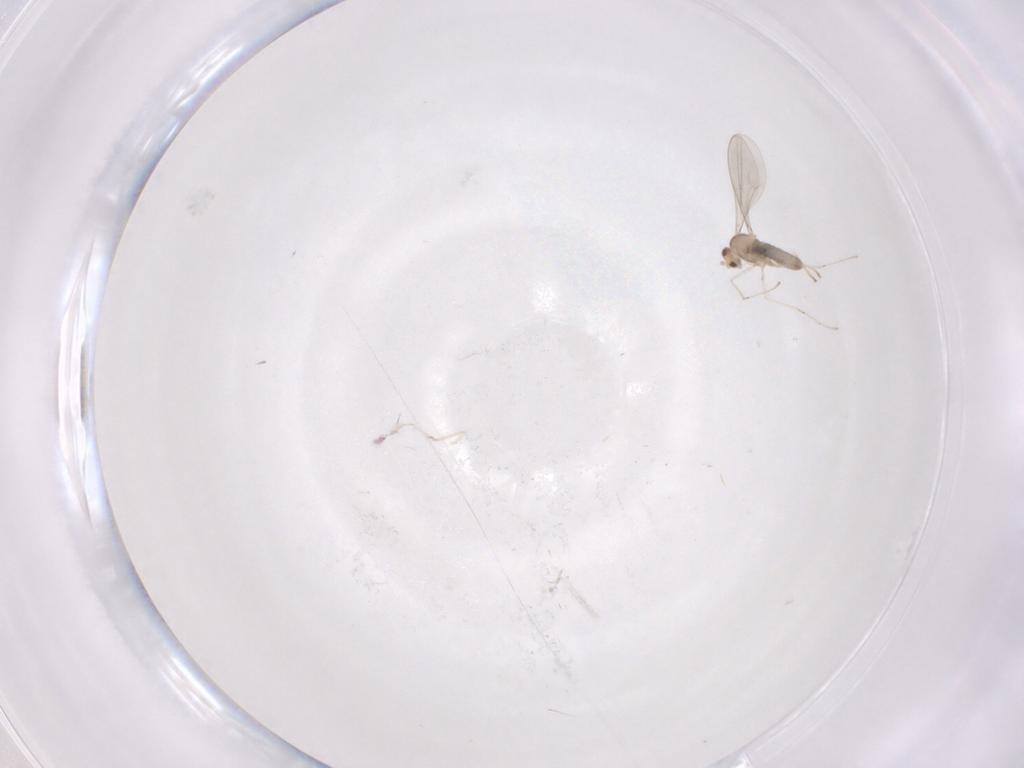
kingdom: Animalia
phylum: Arthropoda
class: Insecta
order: Diptera
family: Cecidomyiidae
